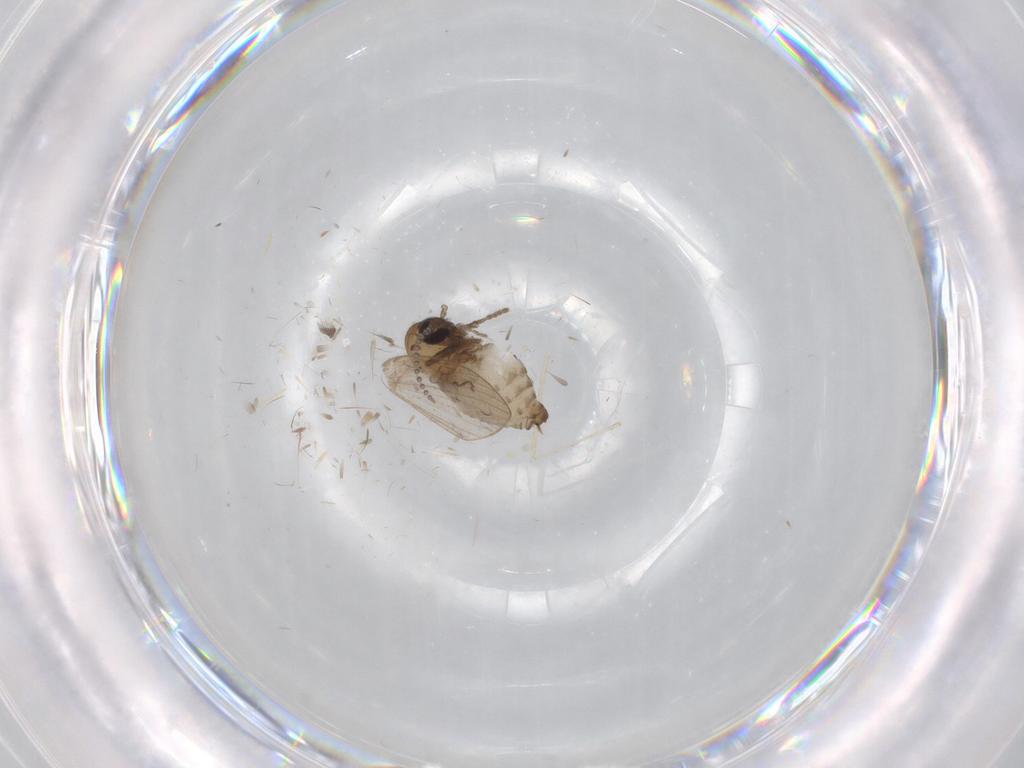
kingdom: Animalia
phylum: Arthropoda
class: Insecta
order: Diptera
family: Psychodidae
